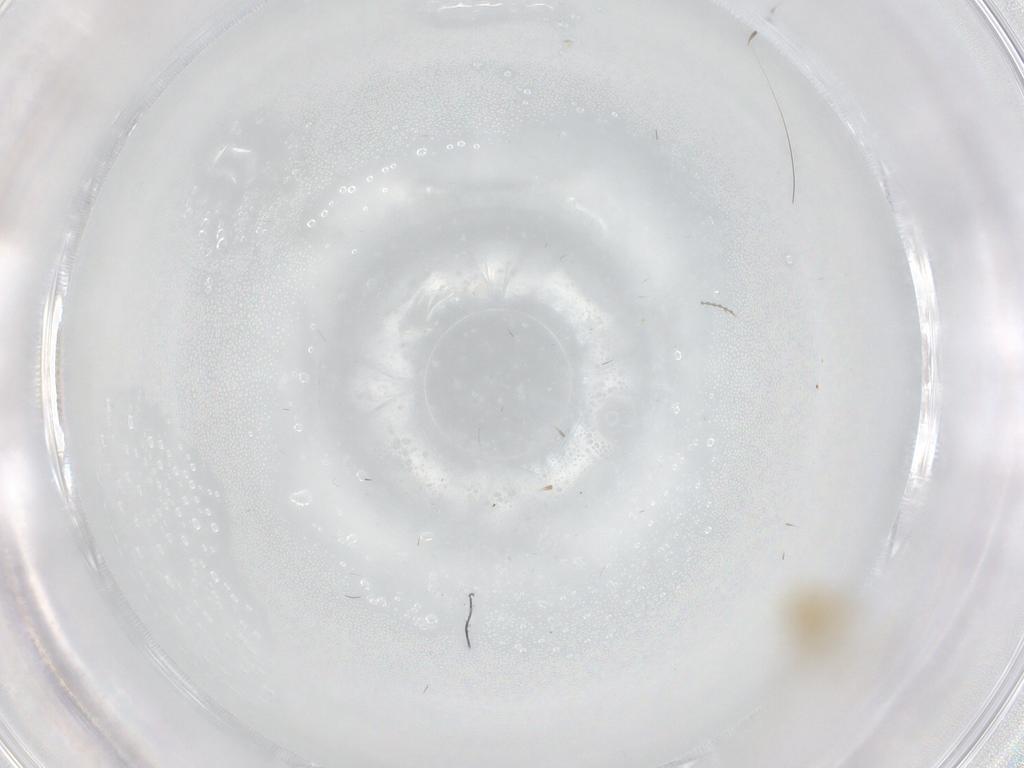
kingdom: Animalia
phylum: Arthropoda
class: Insecta
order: Diptera
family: Cecidomyiidae
